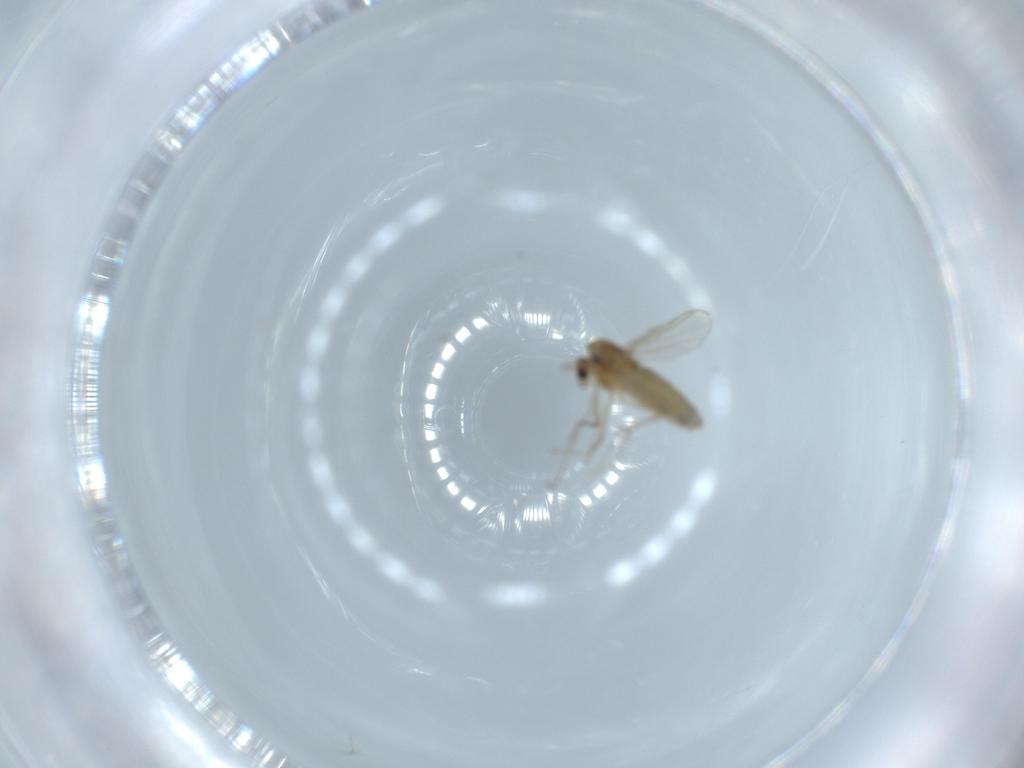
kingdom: Animalia
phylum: Arthropoda
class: Insecta
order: Diptera
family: Chironomidae
